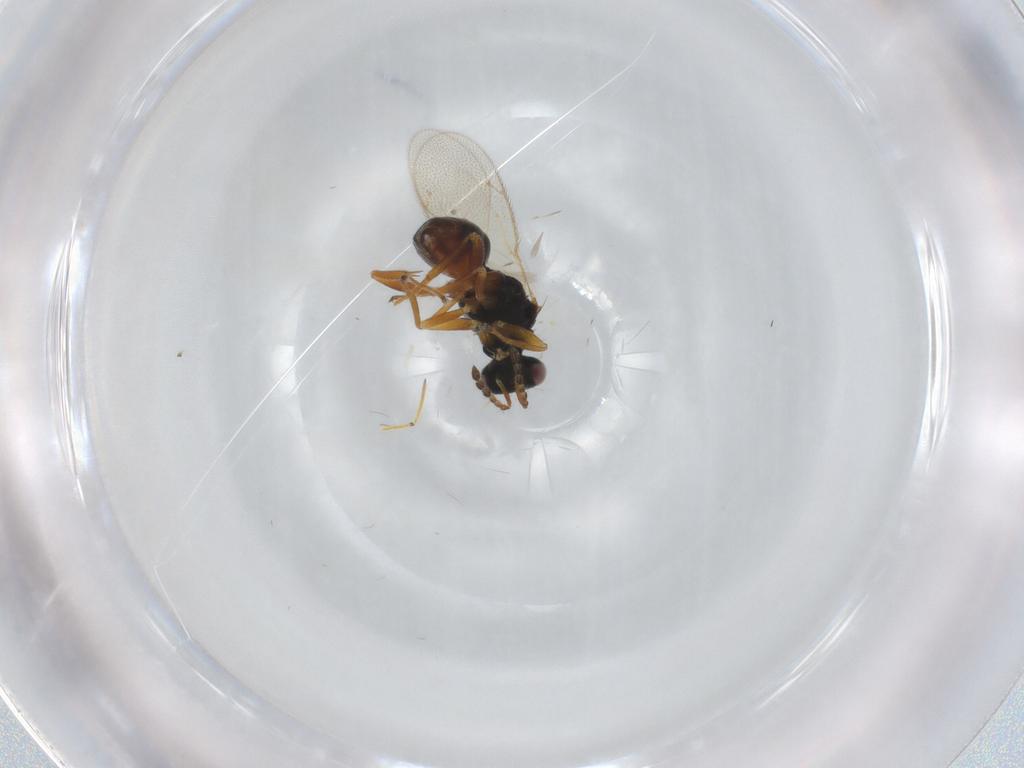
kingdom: Animalia
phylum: Arthropoda
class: Insecta
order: Hymenoptera
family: Eulophidae
